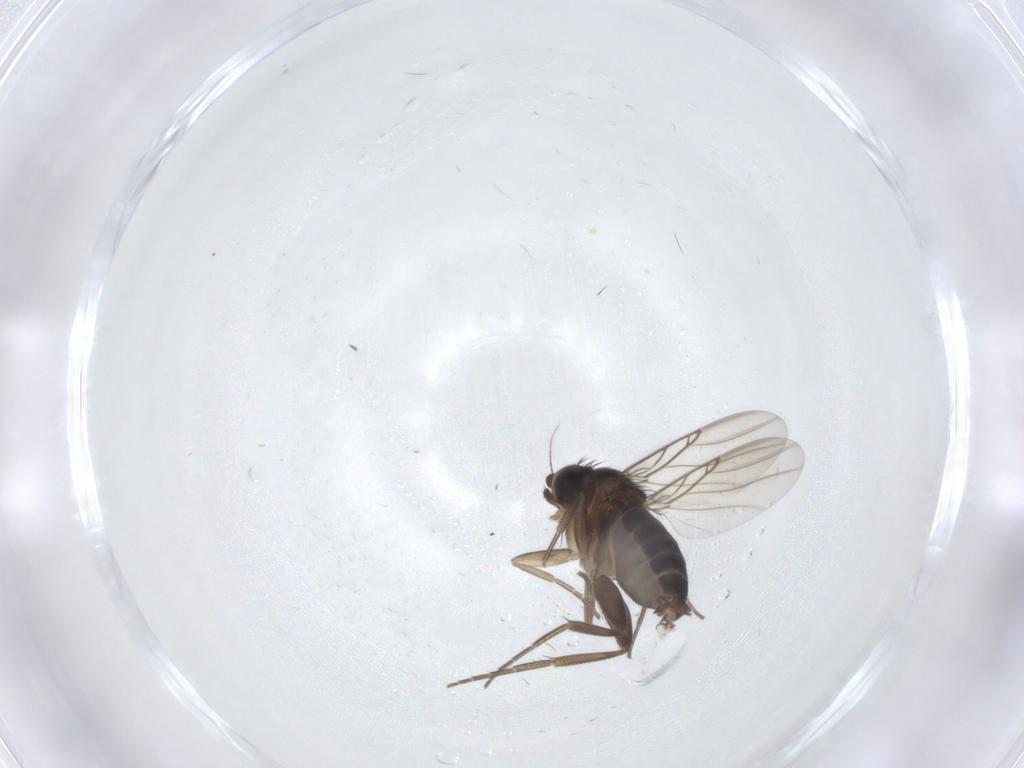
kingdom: Animalia
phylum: Arthropoda
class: Insecta
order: Diptera
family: Phoridae
